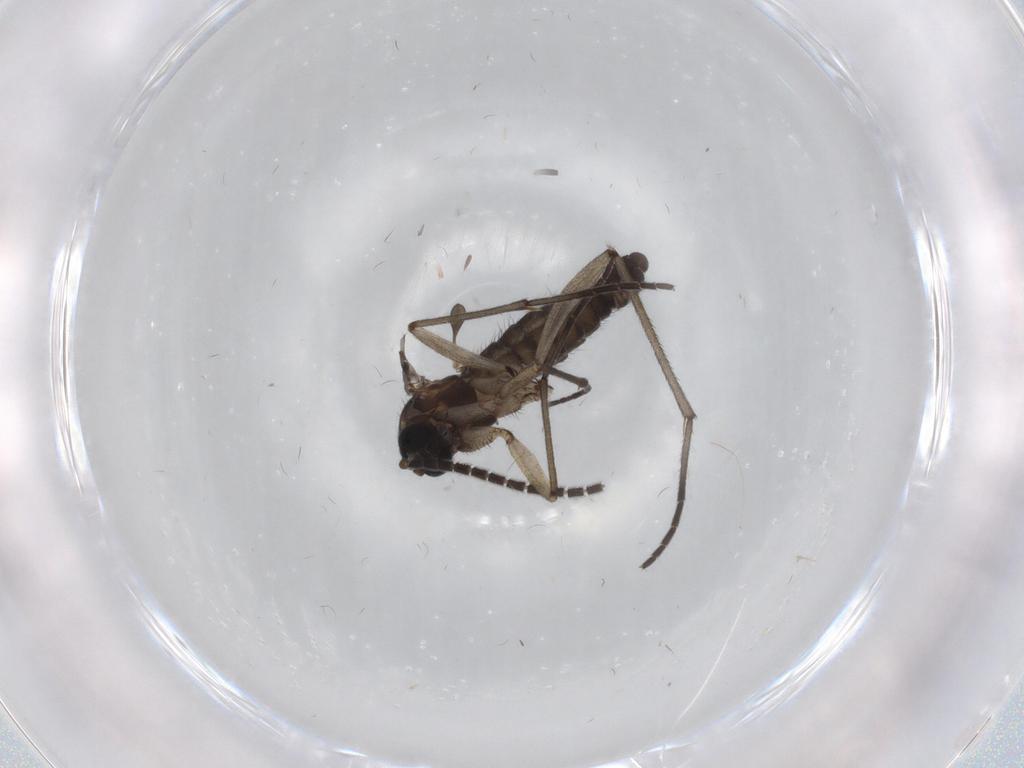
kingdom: Animalia
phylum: Arthropoda
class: Insecta
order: Diptera
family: Sciaridae
